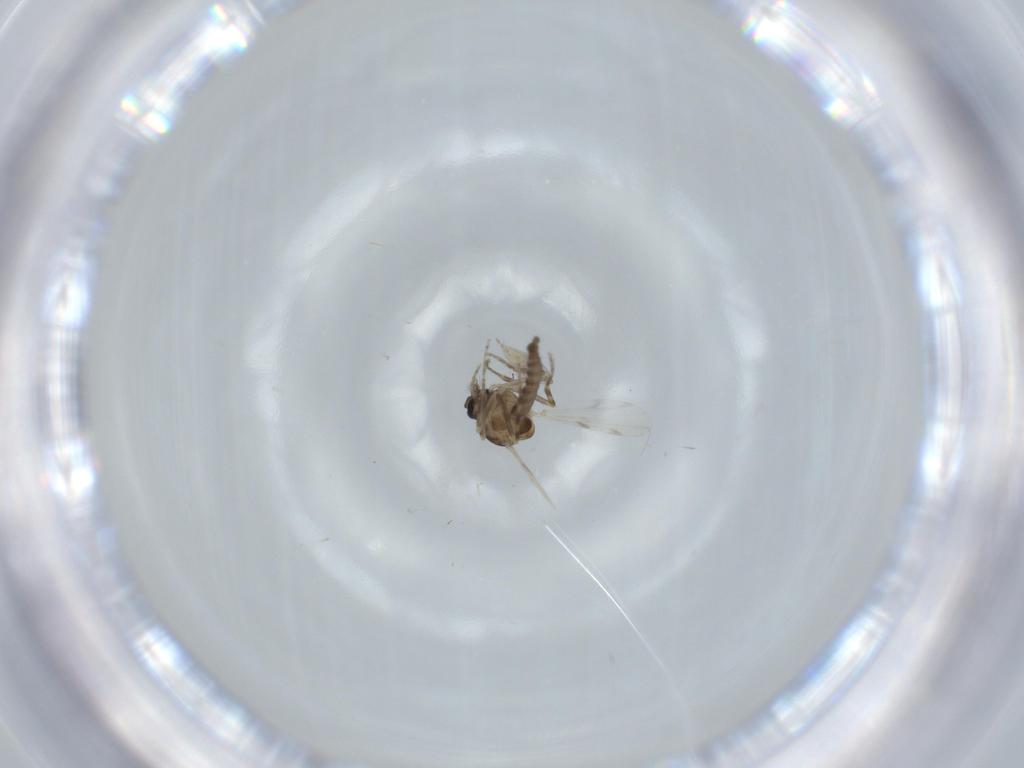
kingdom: Animalia
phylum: Arthropoda
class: Insecta
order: Diptera
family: Ceratopogonidae
